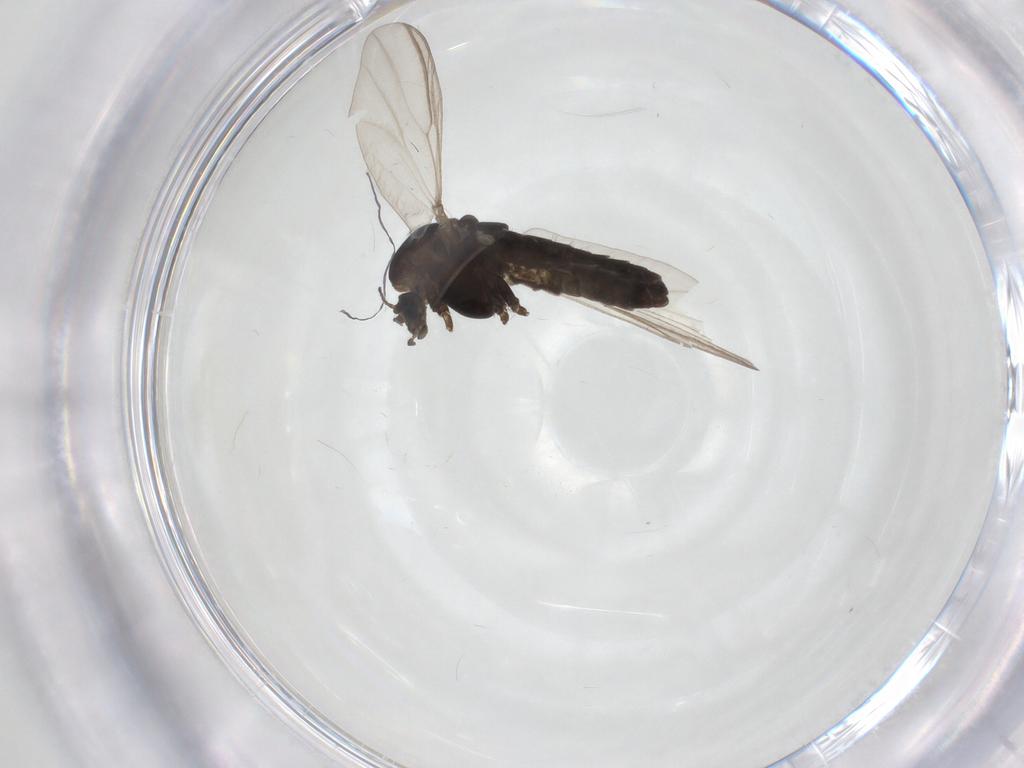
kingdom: Animalia
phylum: Arthropoda
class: Insecta
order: Diptera
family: Chironomidae
